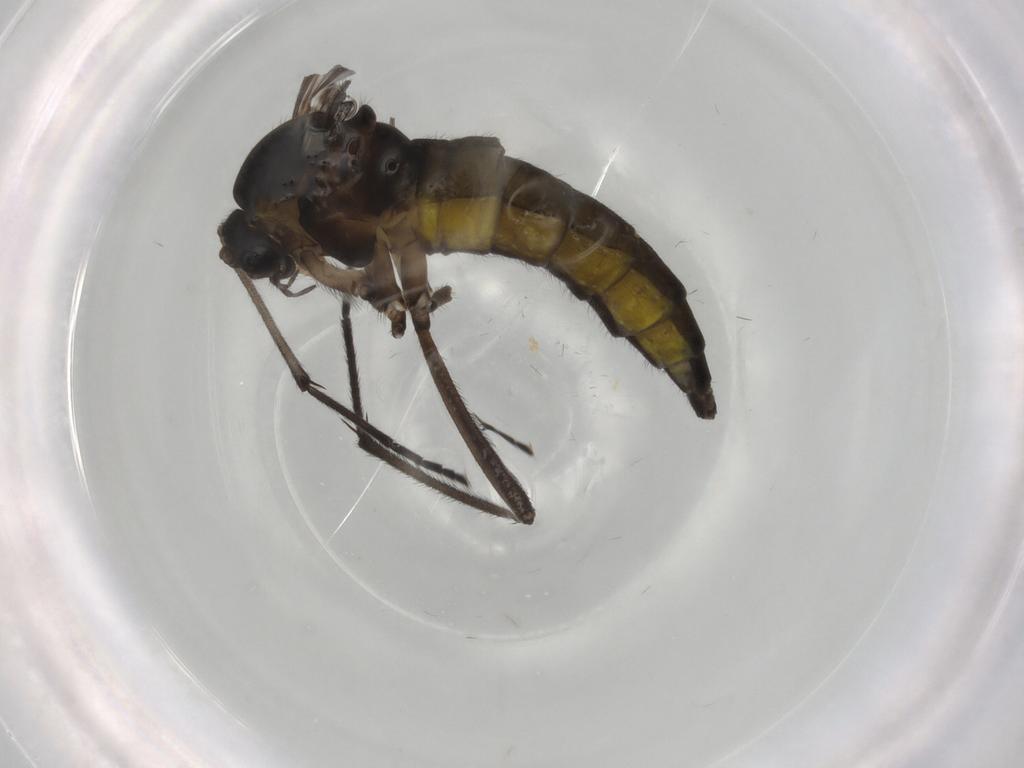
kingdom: Animalia
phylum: Arthropoda
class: Insecta
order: Diptera
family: Sciaridae
